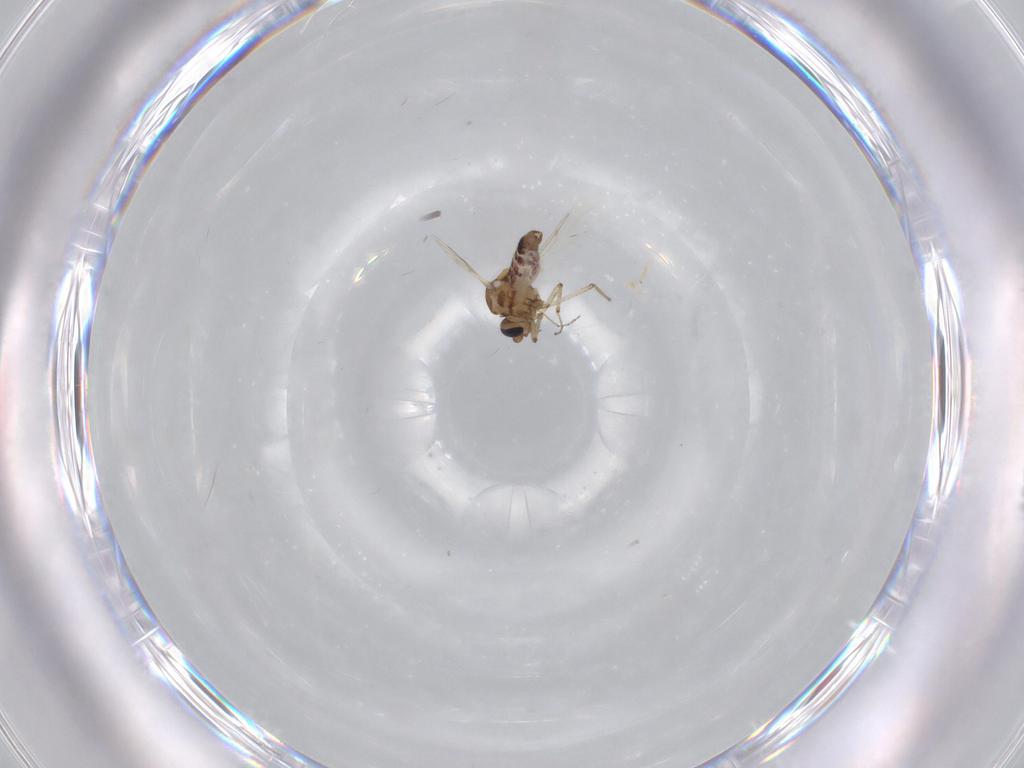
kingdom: Animalia
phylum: Arthropoda
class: Insecta
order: Diptera
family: Ceratopogonidae
